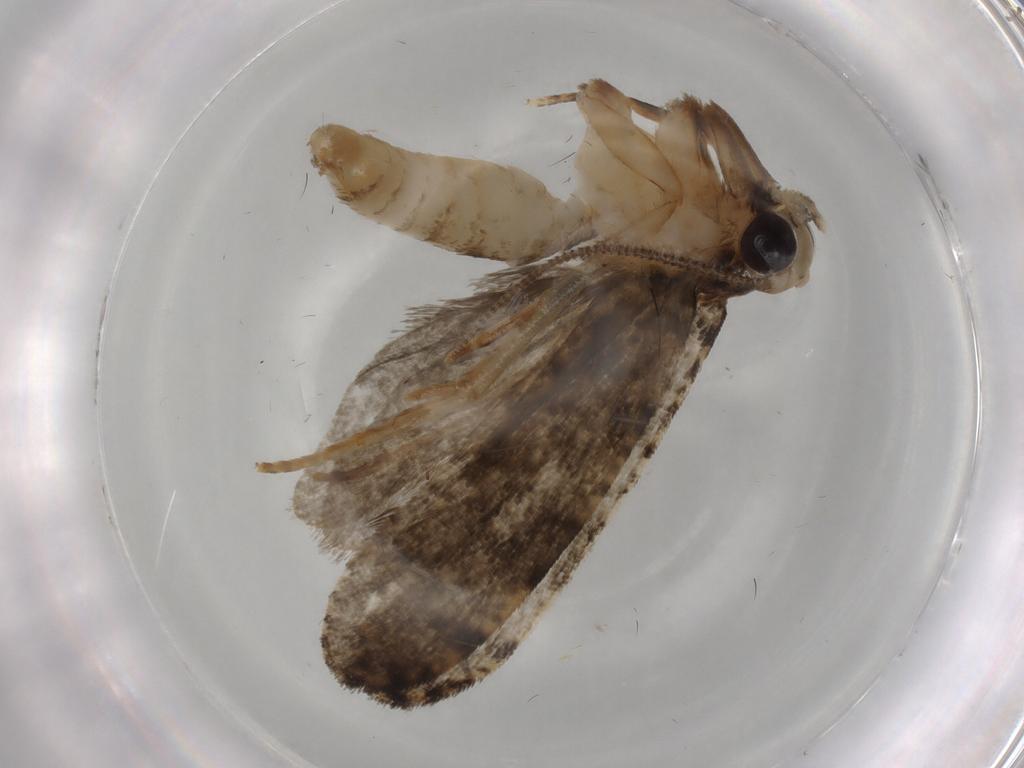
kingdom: Animalia
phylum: Arthropoda
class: Insecta
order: Lepidoptera
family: Tineidae
